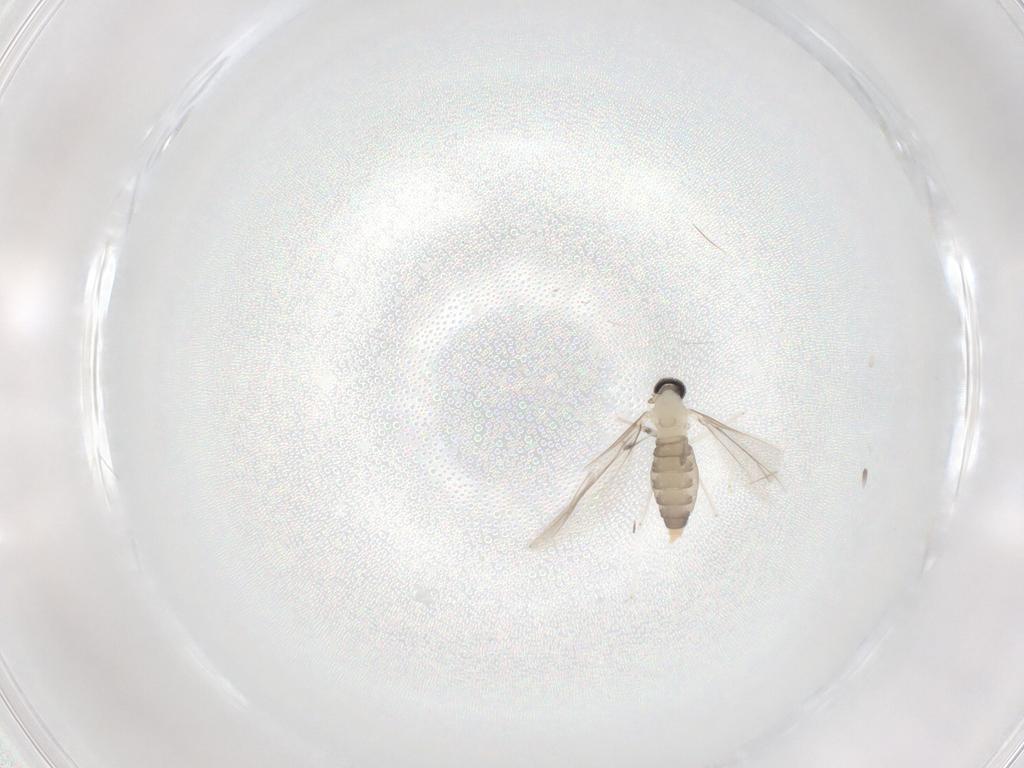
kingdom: Animalia
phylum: Arthropoda
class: Insecta
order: Diptera
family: Cecidomyiidae
